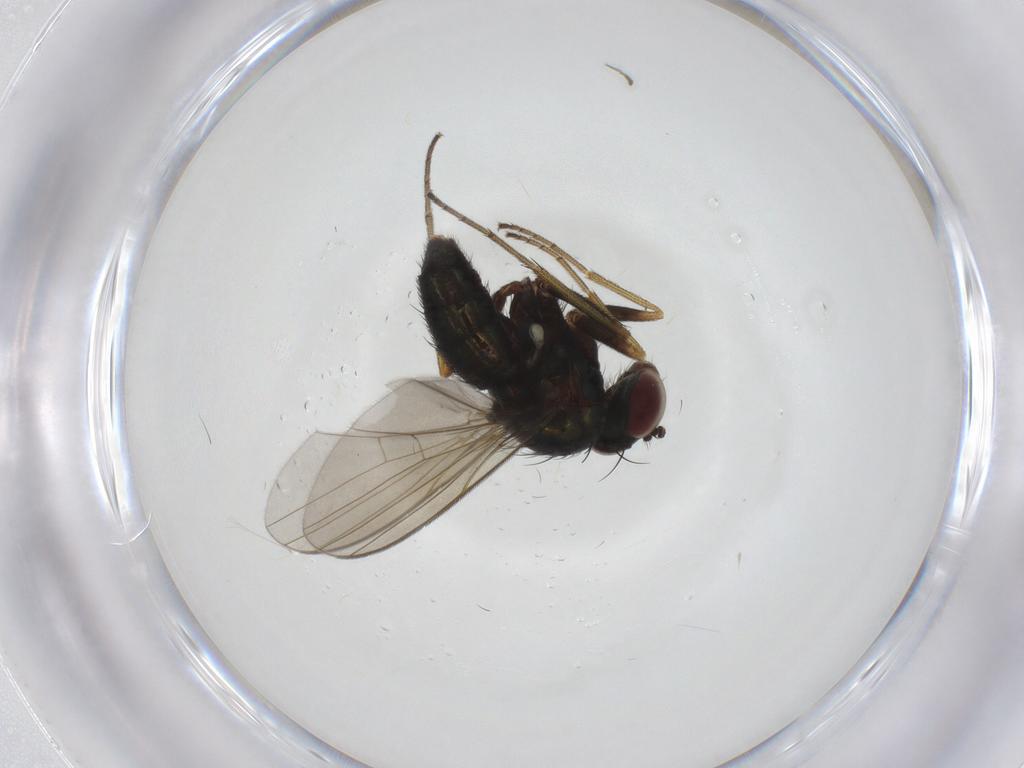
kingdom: Animalia
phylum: Arthropoda
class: Insecta
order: Diptera
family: Dolichopodidae
